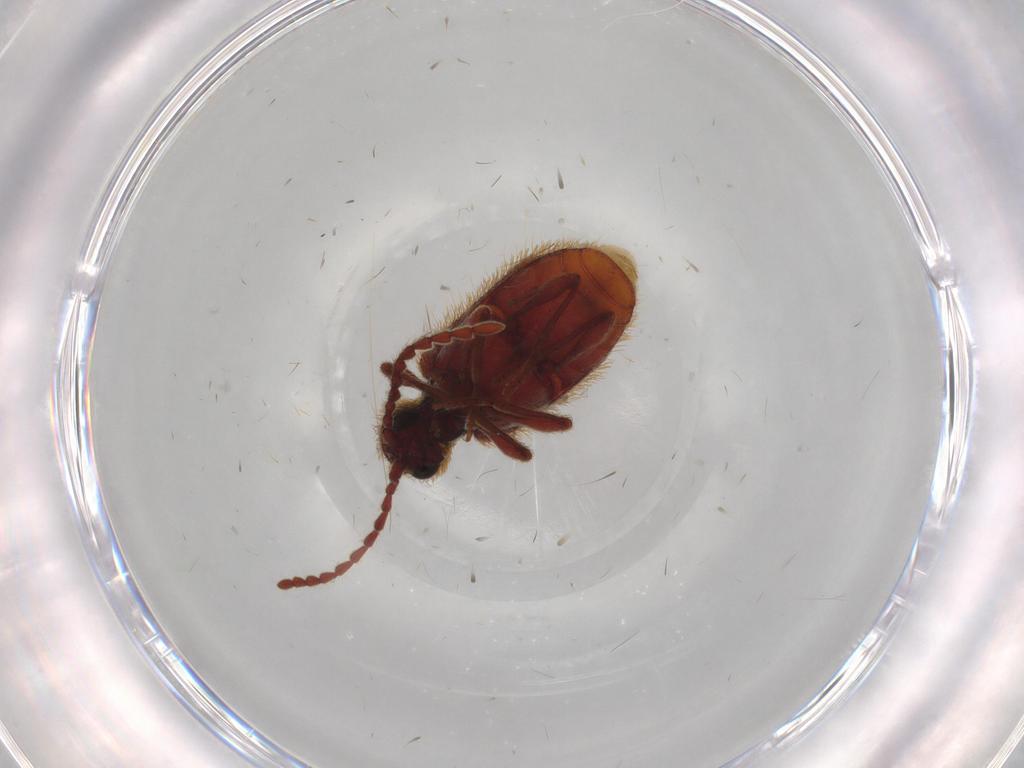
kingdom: Animalia
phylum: Arthropoda
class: Insecta
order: Coleoptera
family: Ptinidae
